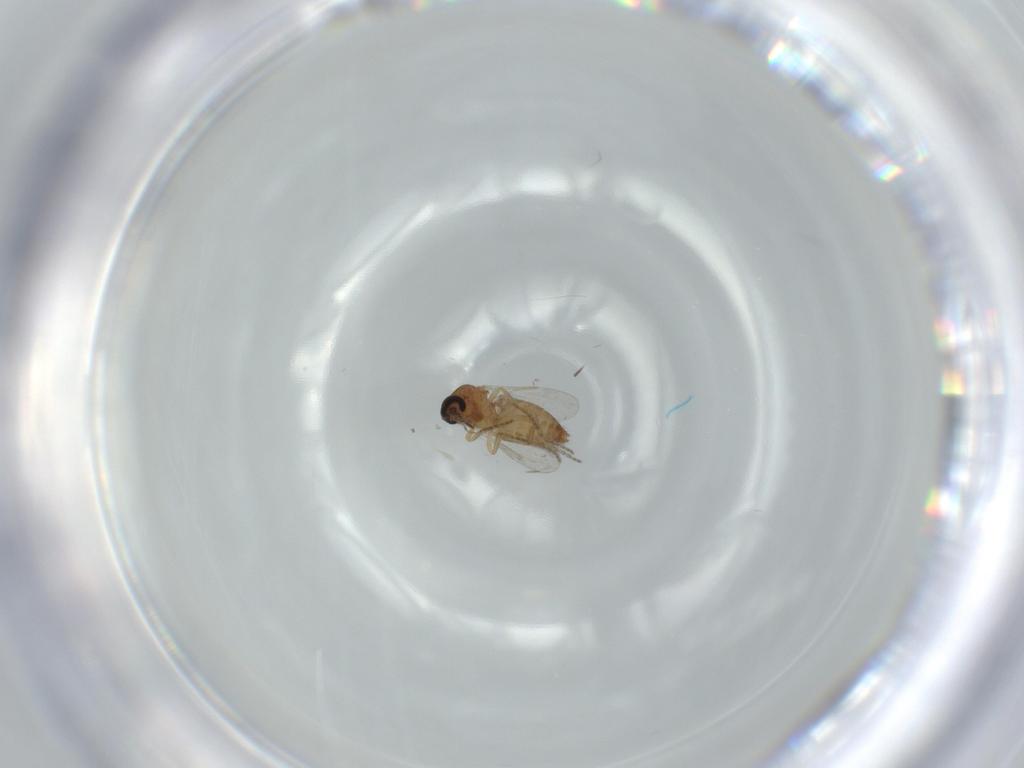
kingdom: Animalia
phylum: Arthropoda
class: Insecta
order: Diptera
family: Ceratopogonidae
